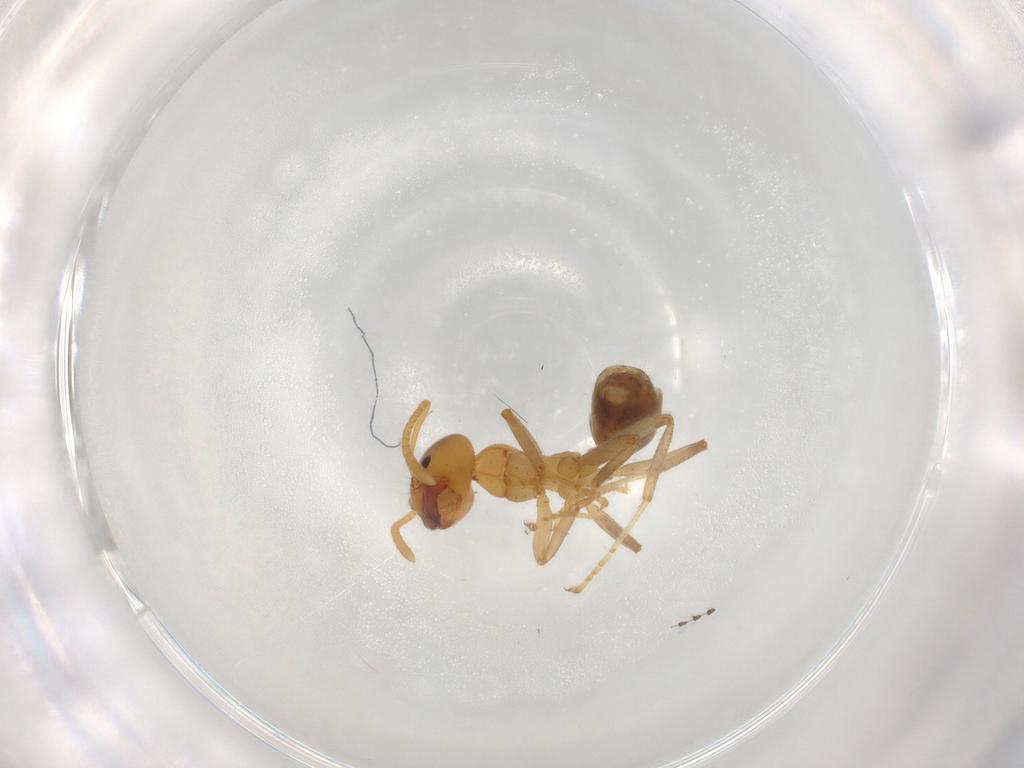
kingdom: Animalia
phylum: Arthropoda
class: Insecta
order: Hymenoptera
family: Formicidae
